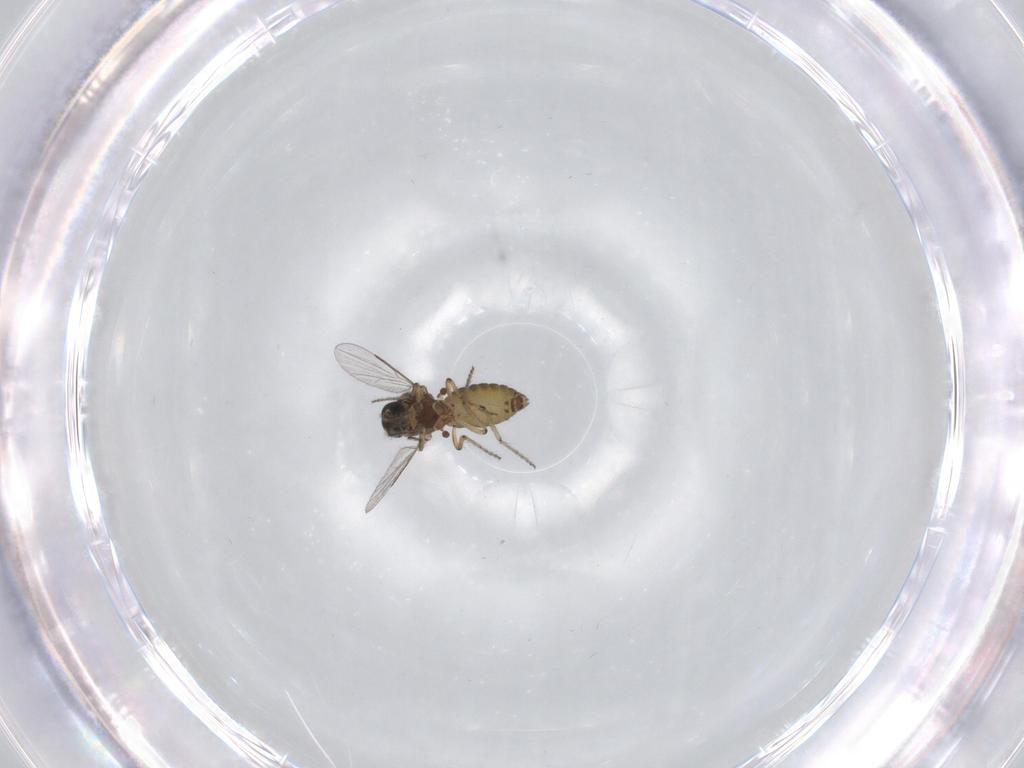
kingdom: Animalia
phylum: Arthropoda
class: Insecta
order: Diptera
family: Ceratopogonidae
